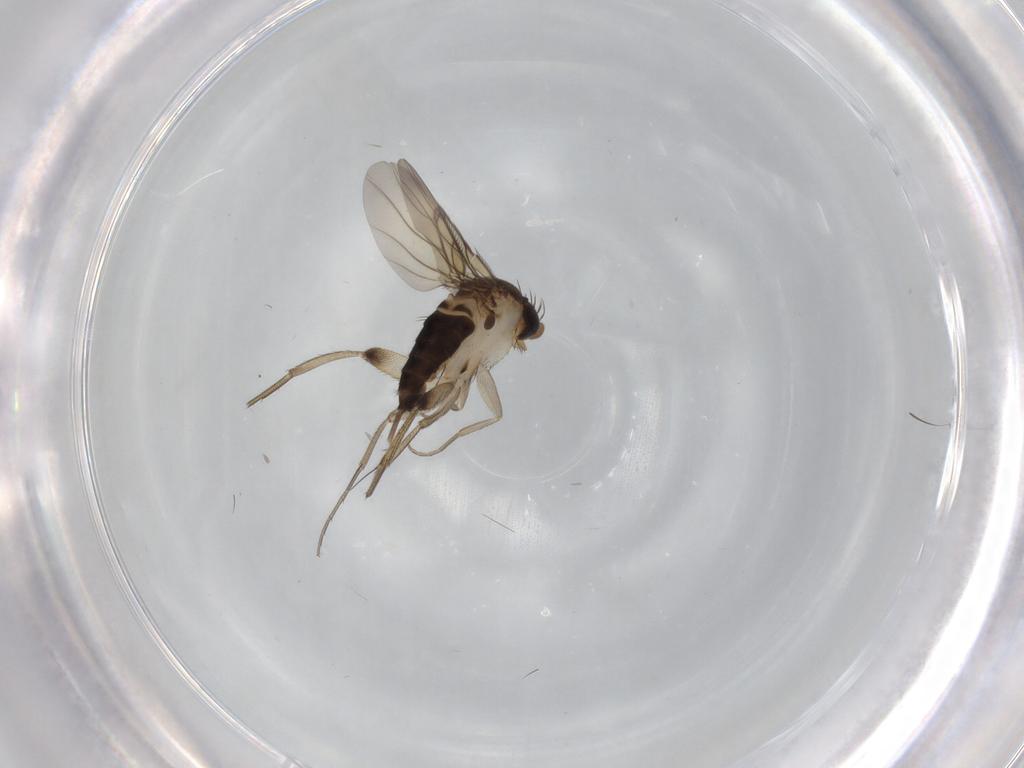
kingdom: Animalia
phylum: Arthropoda
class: Insecta
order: Diptera
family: Phoridae
